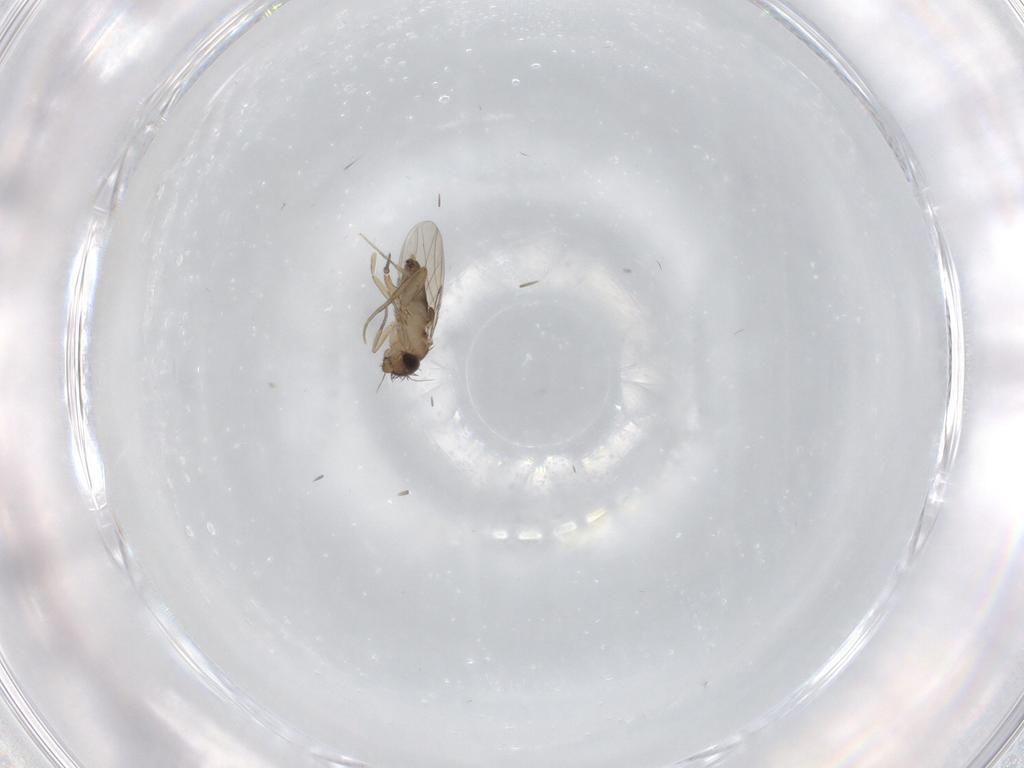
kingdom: Animalia
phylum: Arthropoda
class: Insecta
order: Diptera
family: Phoridae
